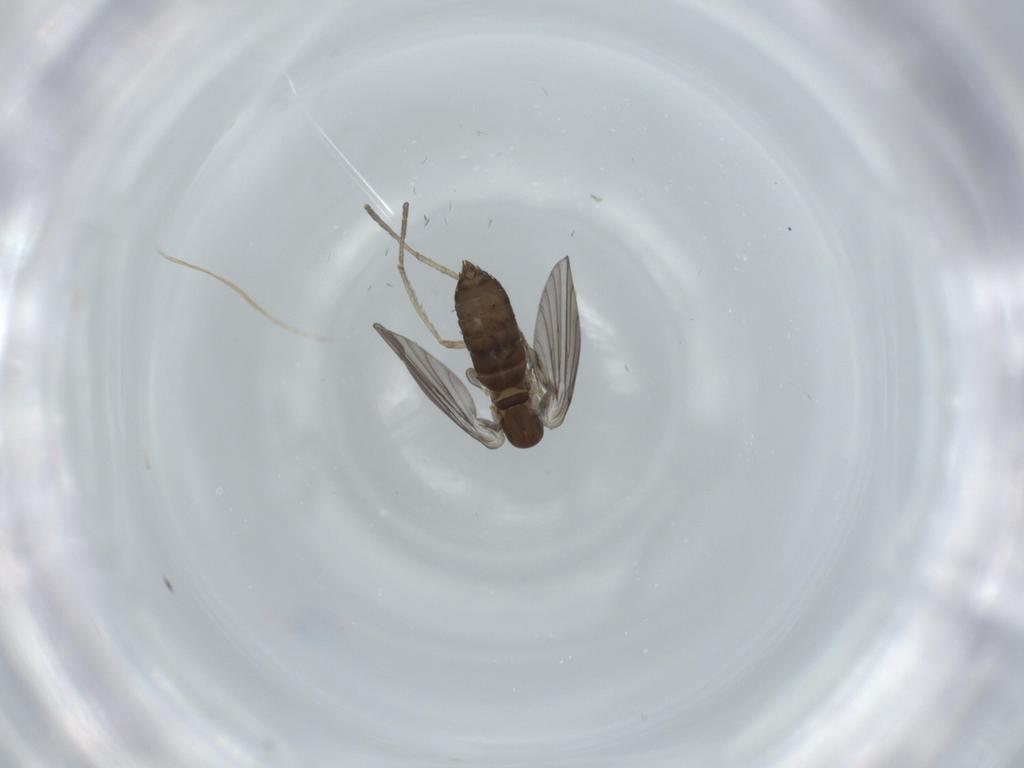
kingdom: Animalia
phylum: Arthropoda
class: Insecta
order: Diptera
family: Psychodidae
